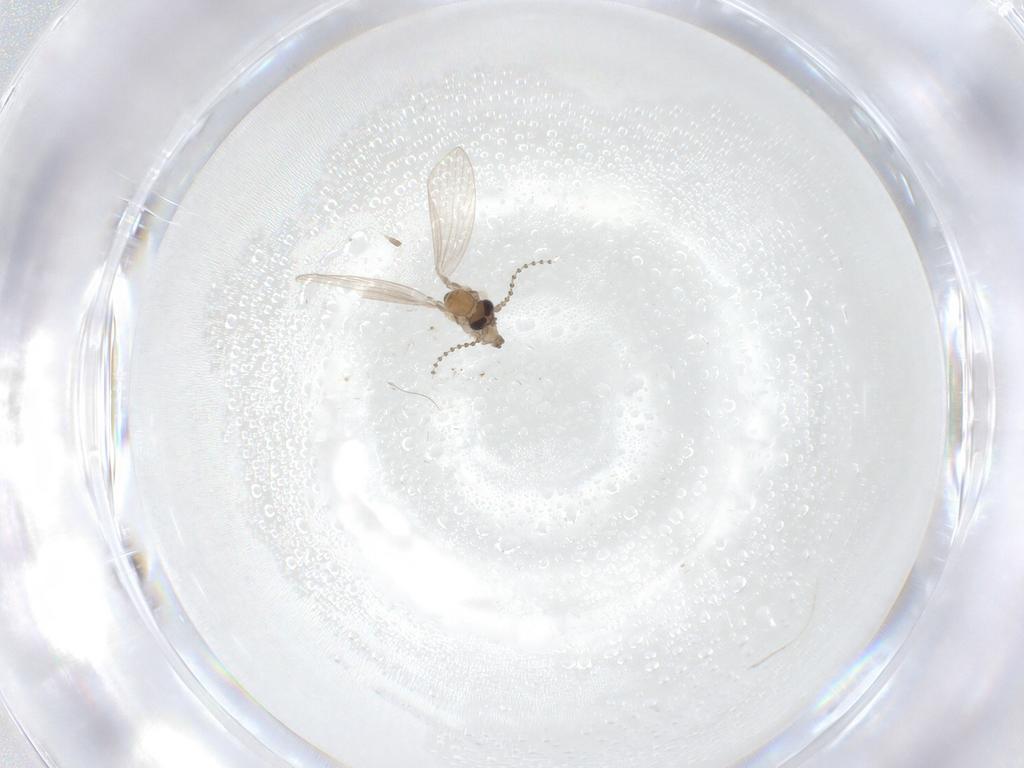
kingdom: Animalia
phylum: Arthropoda
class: Insecta
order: Diptera
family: Psychodidae
